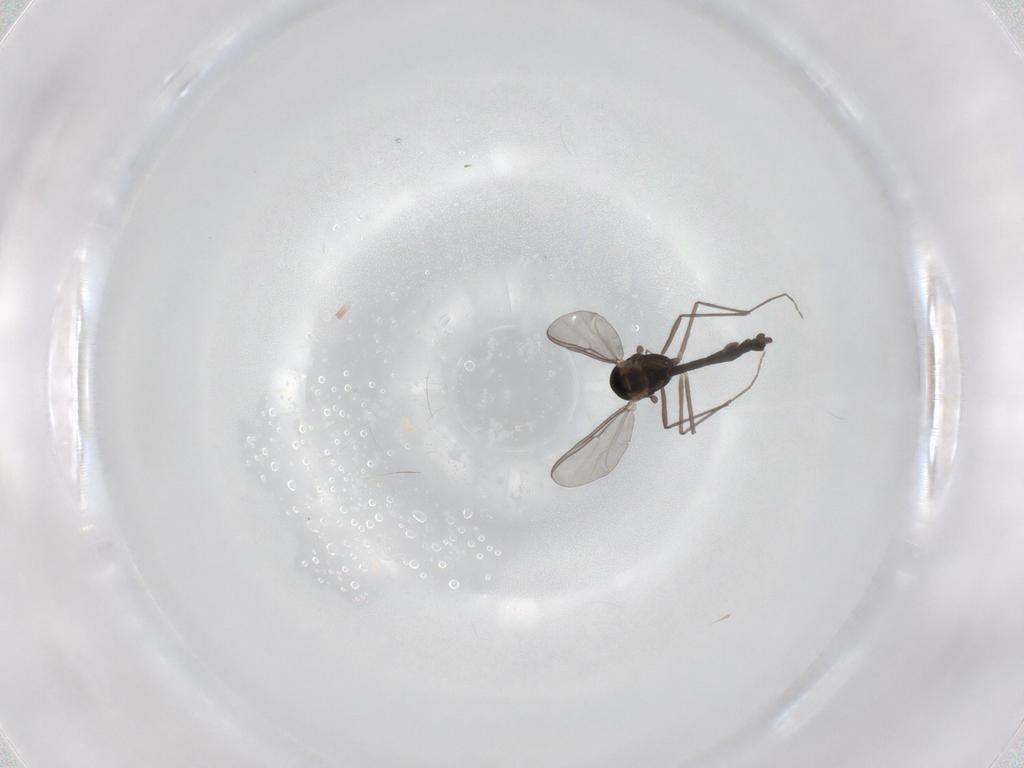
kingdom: Animalia
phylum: Arthropoda
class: Insecta
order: Diptera
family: Chironomidae
